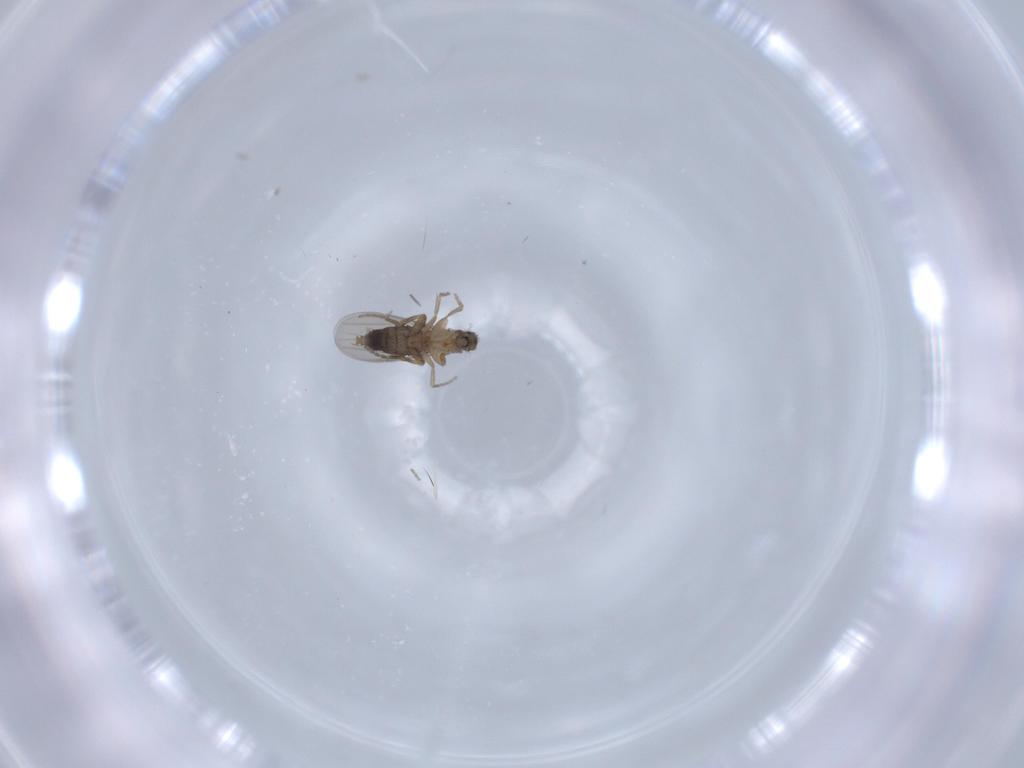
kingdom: Animalia
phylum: Arthropoda
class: Insecta
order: Diptera
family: Phoridae
